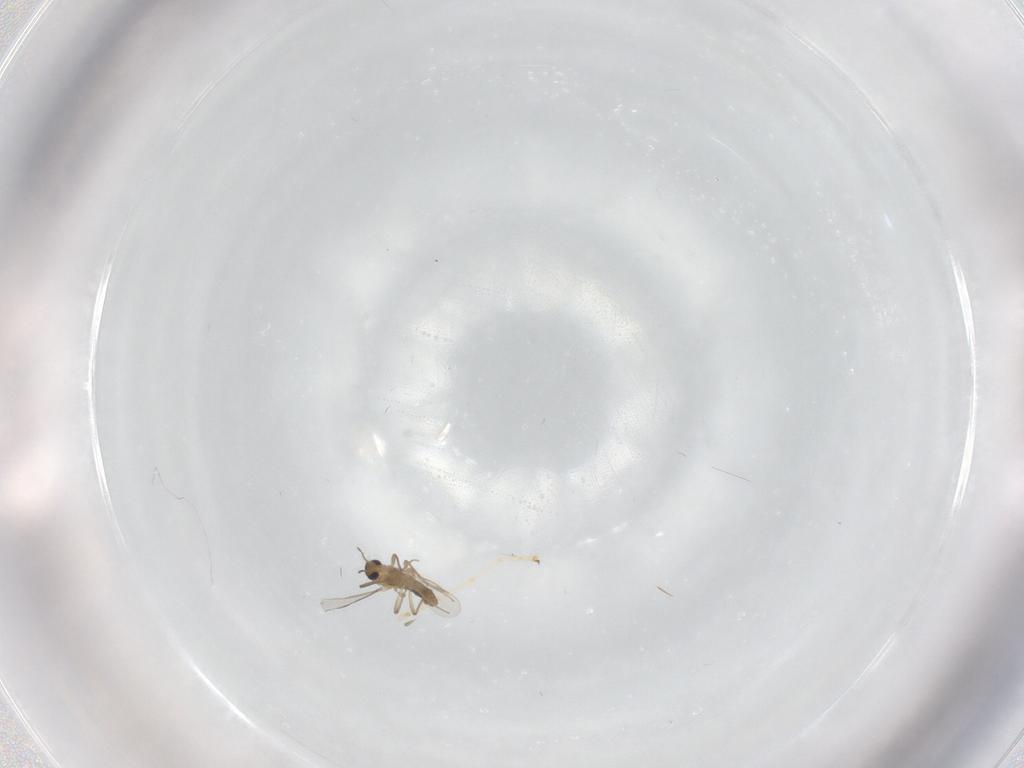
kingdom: Animalia
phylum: Arthropoda
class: Insecta
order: Diptera
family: Chironomidae
